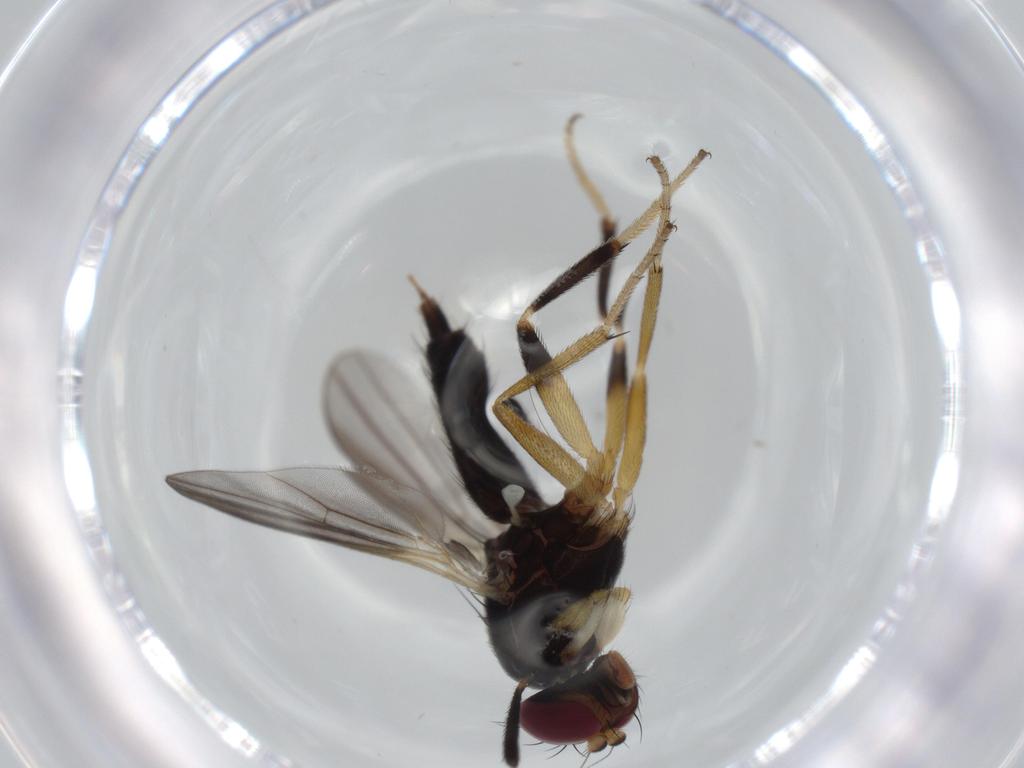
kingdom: Animalia
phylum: Arthropoda
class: Insecta
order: Diptera
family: Clusiidae
